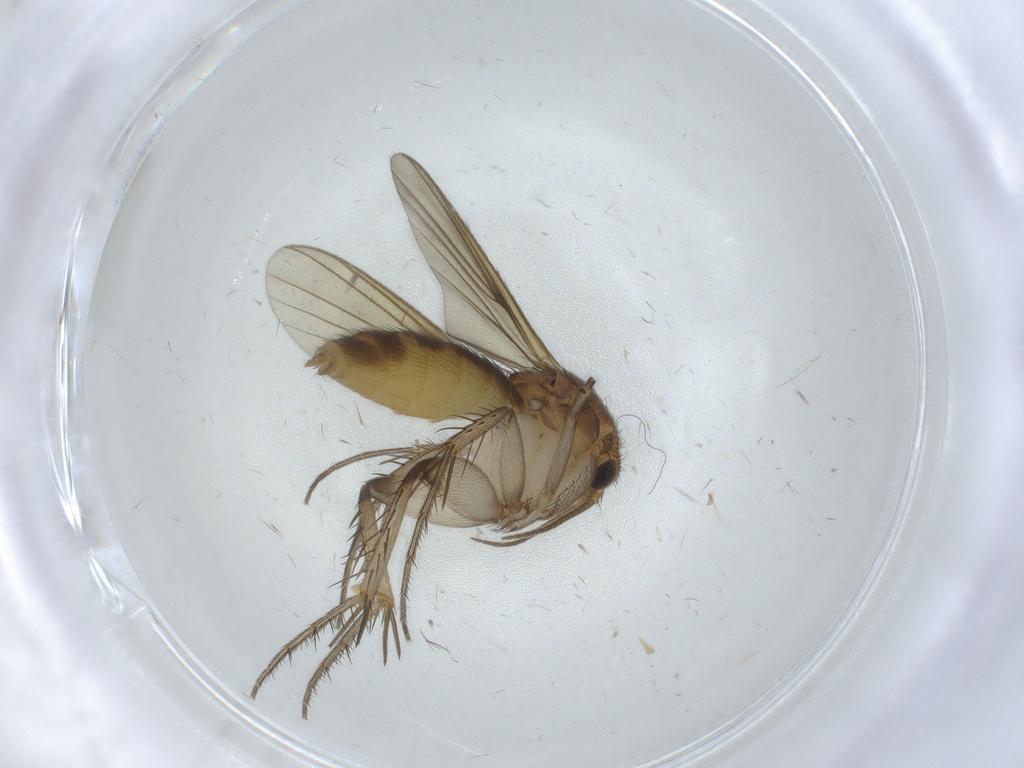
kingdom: Animalia
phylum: Arthropoda
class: Insecta
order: Diptera
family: Mycetophilidae
